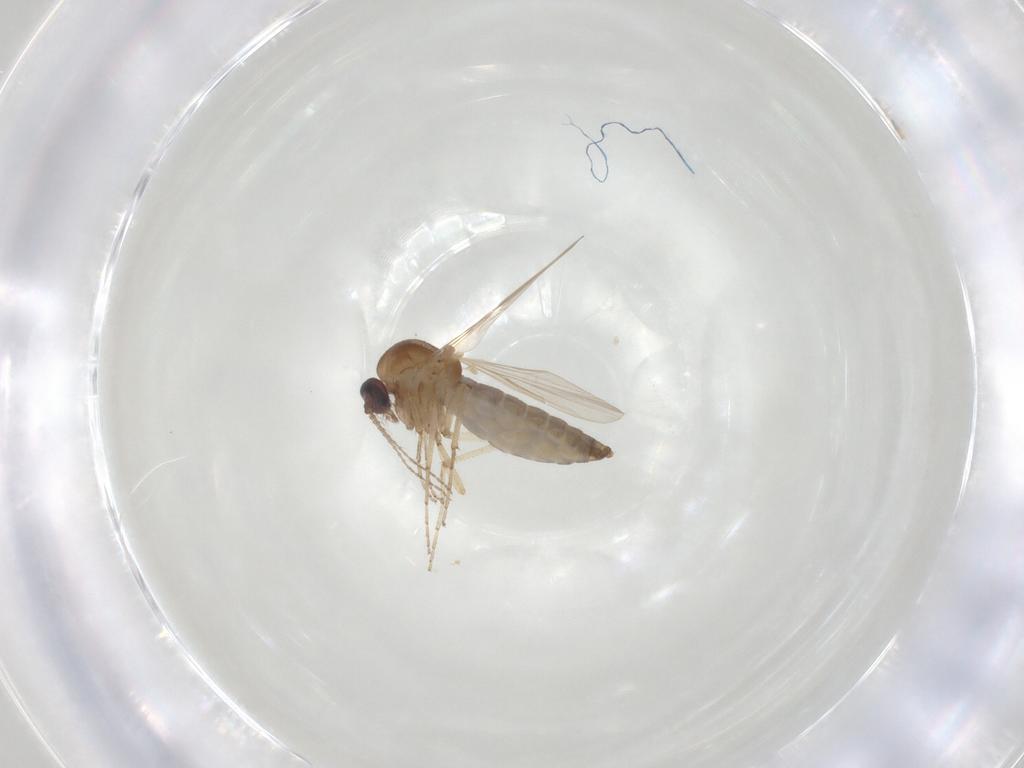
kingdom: Animalia
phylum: Arthropoda
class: Insecta
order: Diptera
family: Ceratopogonidae
